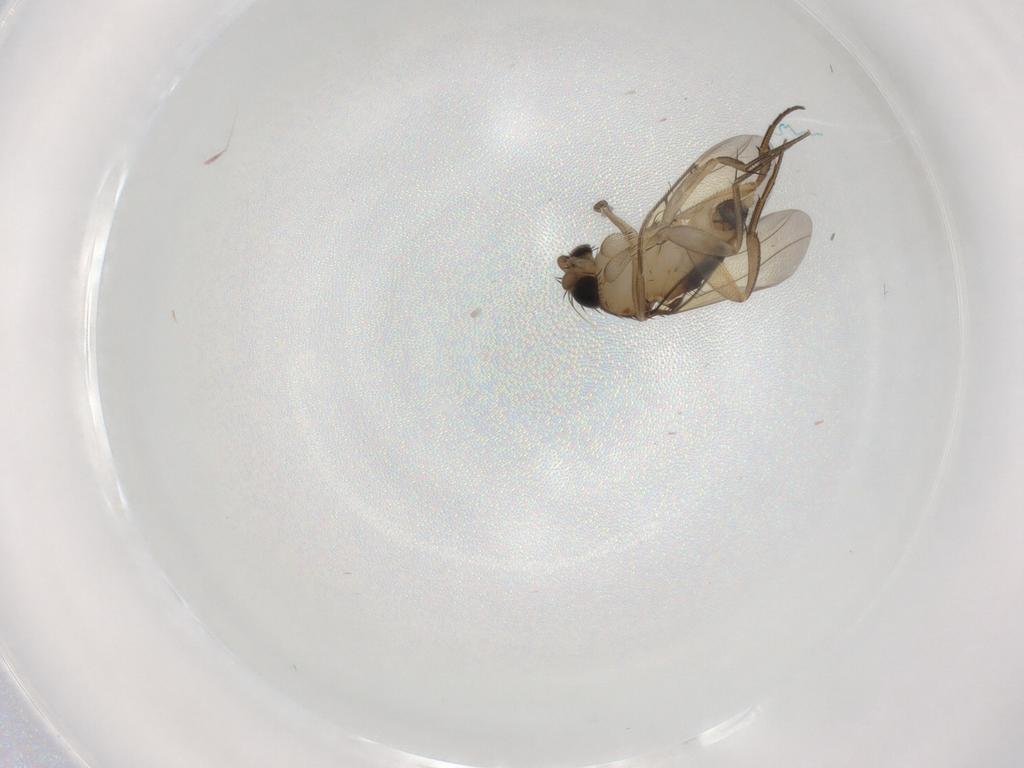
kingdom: Animalia
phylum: Arthropoda
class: Insecta
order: Diptera
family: Keroplatidae
